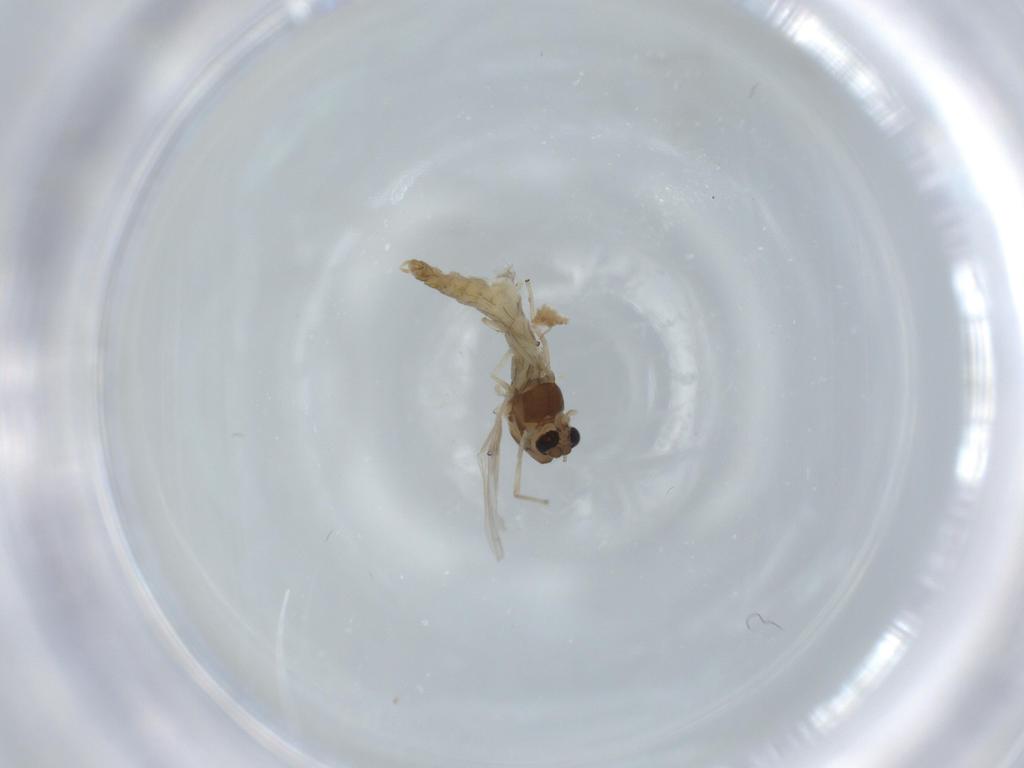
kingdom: Animalia
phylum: Arthropoda
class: Insecta
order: Diptera
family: Chironomidae
